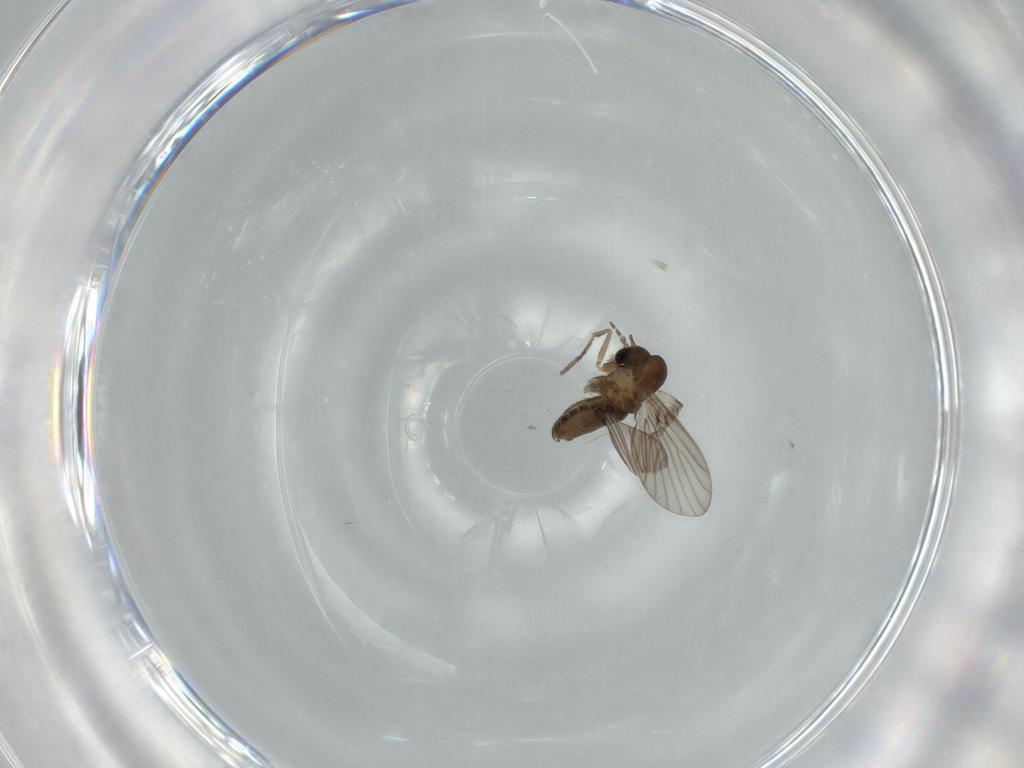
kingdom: Animalia
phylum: Arthropoda
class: Insecta
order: Diptera
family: Psychodidae
